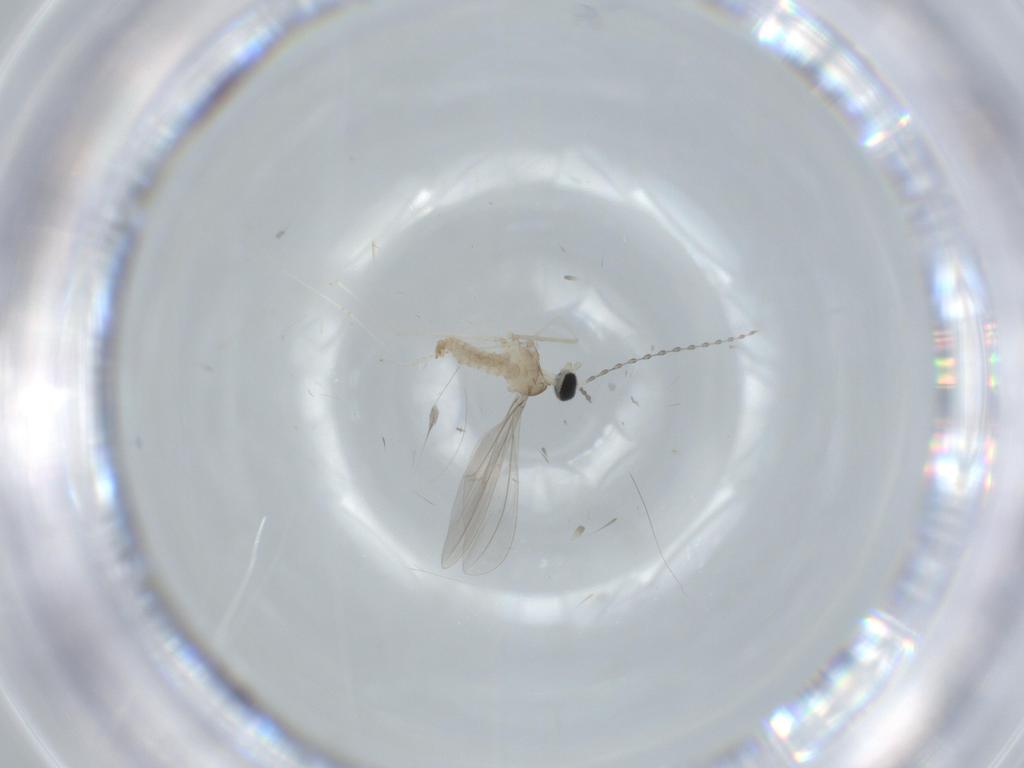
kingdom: Animalia
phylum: Arthropoda
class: Insecta
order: Diptera
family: Cecidomyiidae
